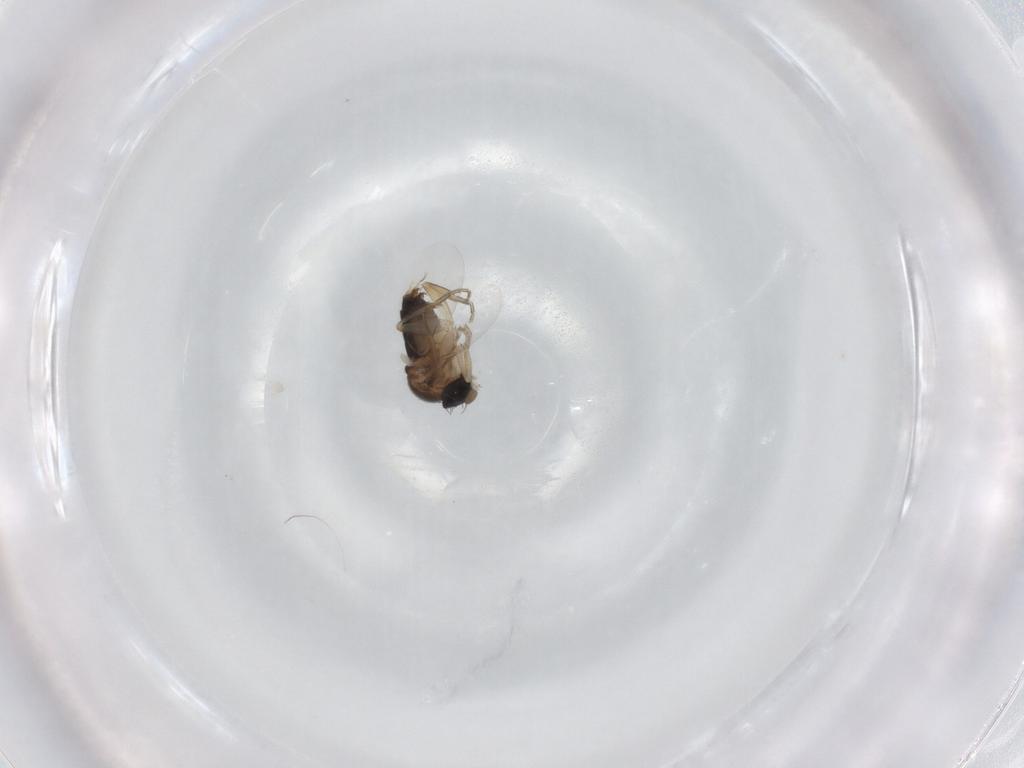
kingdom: Animalia
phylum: Arthropoda
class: Insecta
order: Diptera
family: Phoridae
